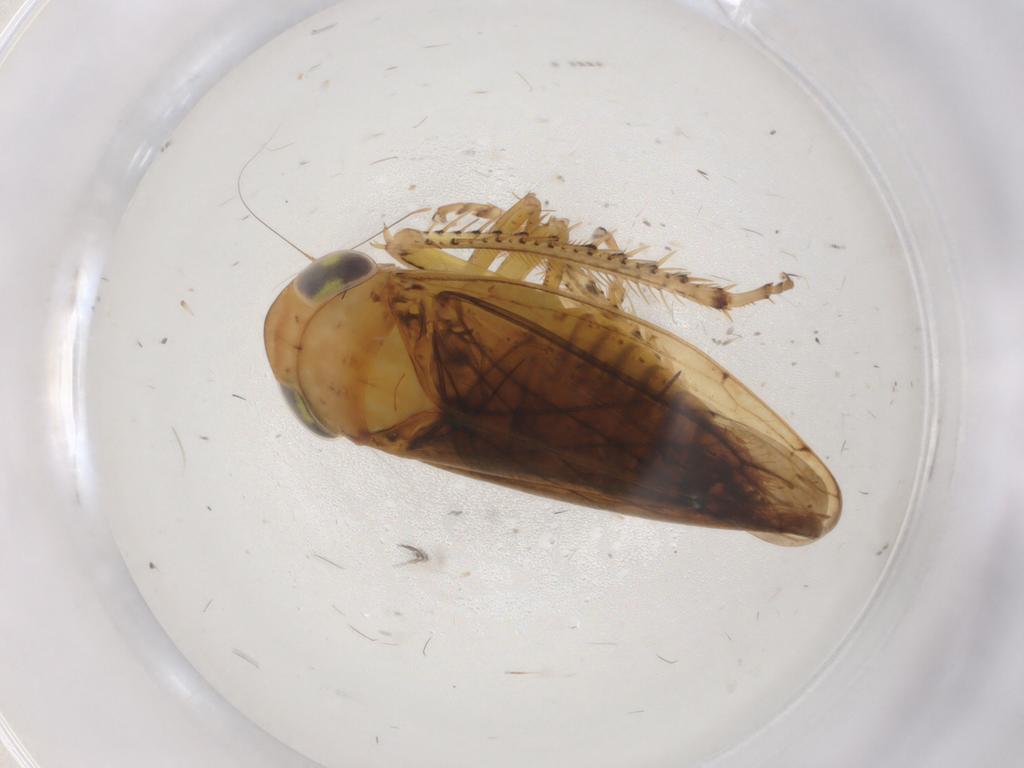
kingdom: Animalia
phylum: Arthropoda
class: Insecta
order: Hemiptera
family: Cicadellidae
